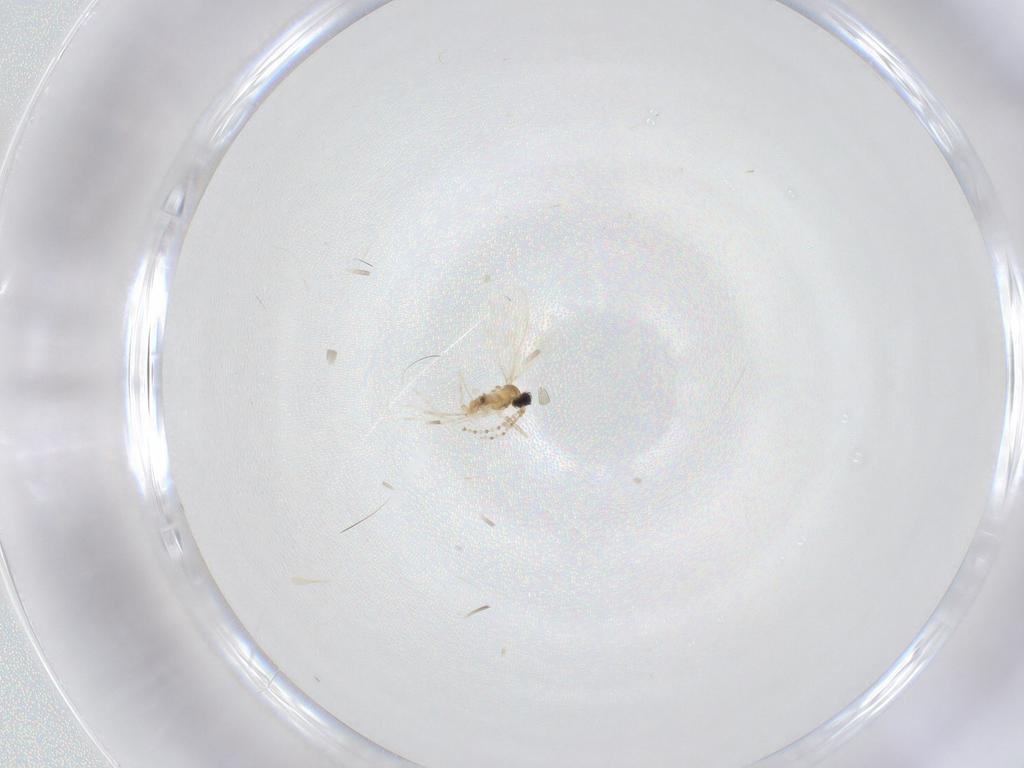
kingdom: Animalia
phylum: Arthropoda
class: Insecta
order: Diptera
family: Cecidomyiidae
